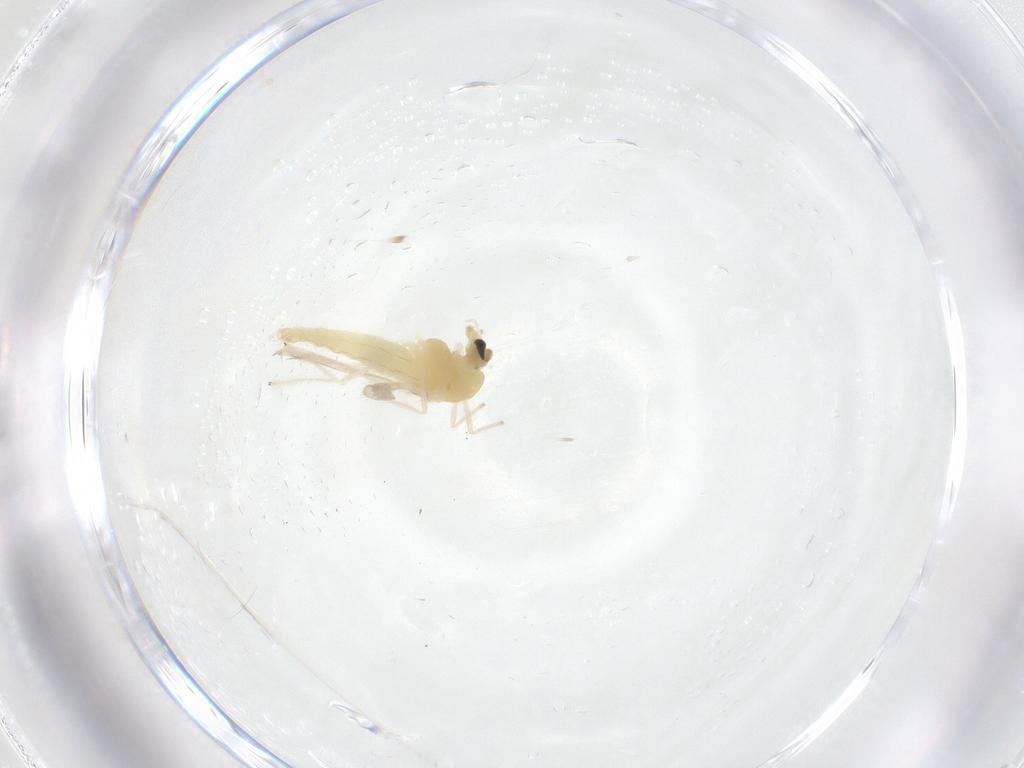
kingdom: Animalia
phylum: Arthropoda
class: Insecta
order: Diptera
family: Chironomidae
